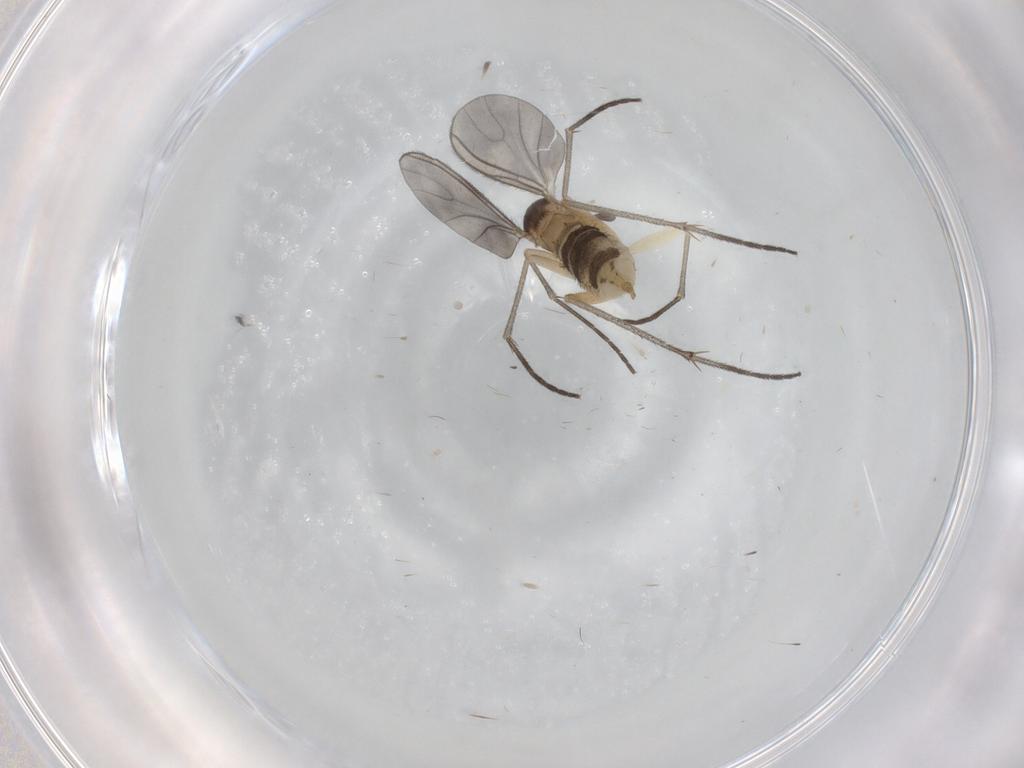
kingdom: Animalia
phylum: Arthropoda
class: Insecta
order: Diptera
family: Sciaridae
